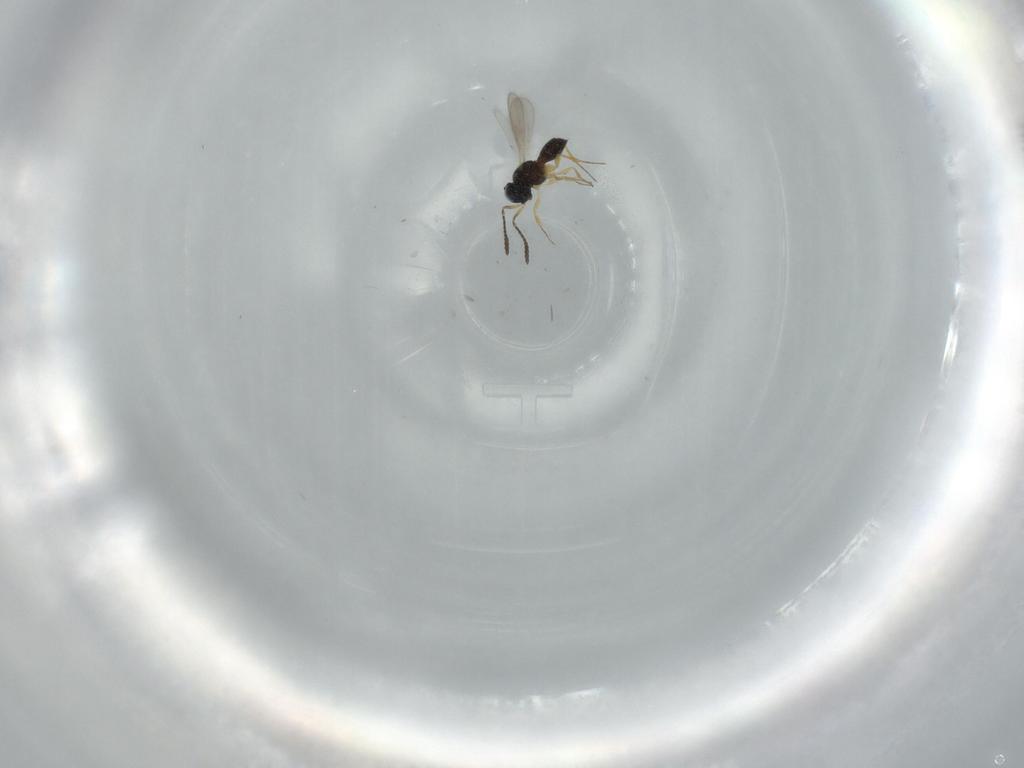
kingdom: Animalia
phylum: Arthropoda
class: Insecta
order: Hymenoptera
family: Scelionidae
